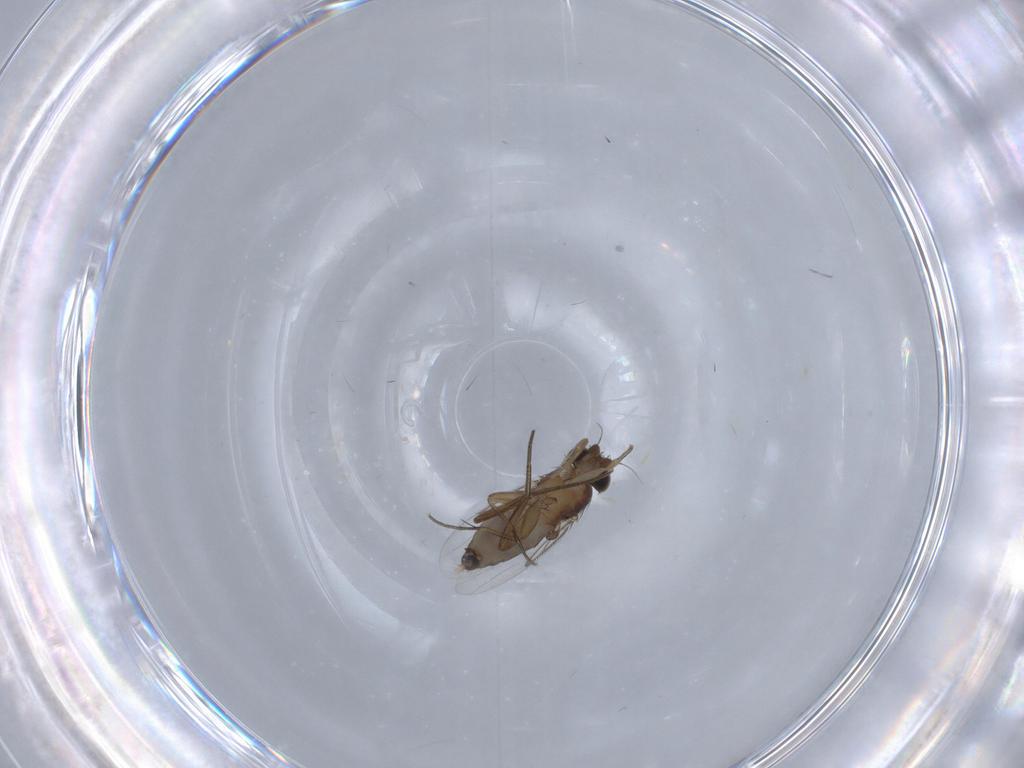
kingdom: Animalia
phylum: Arthropoda
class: Insecta
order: Diptera
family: Phoridae
